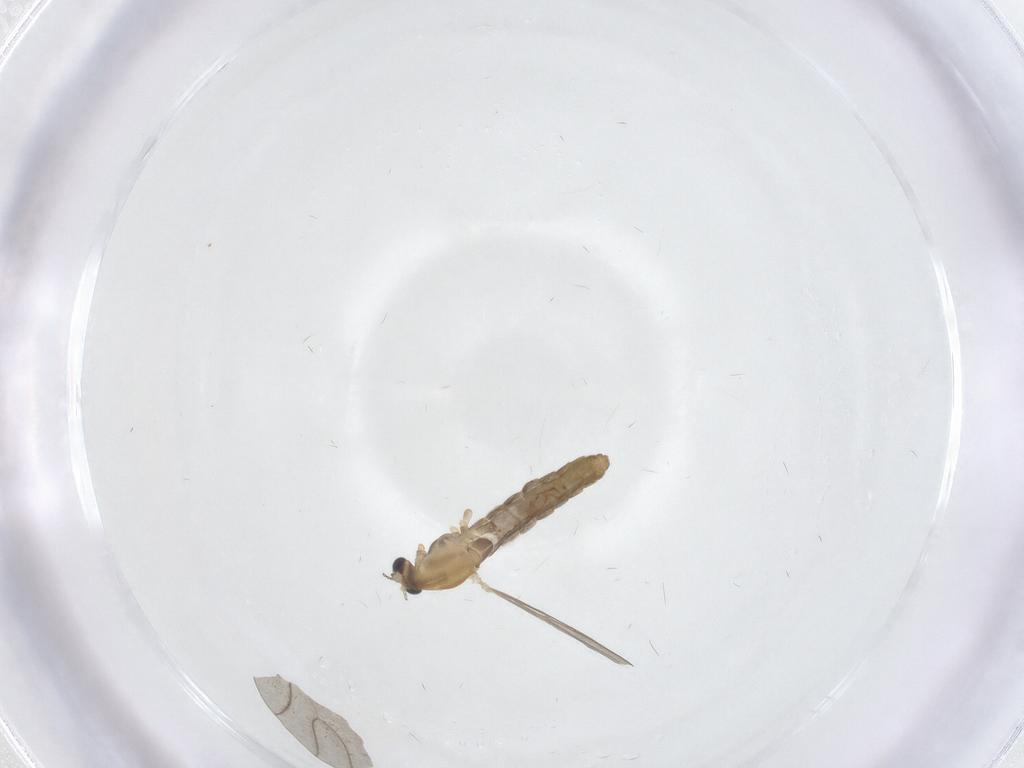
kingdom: Animalia
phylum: Arthropoda
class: Insecta
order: Diptera
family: Chironomidae
